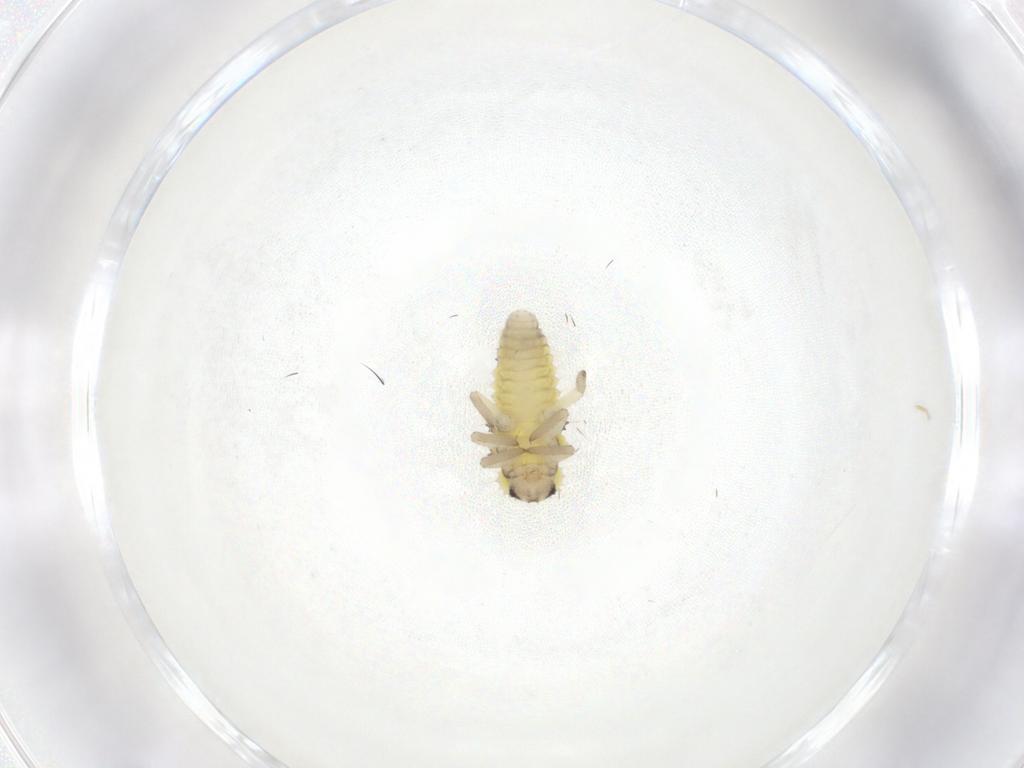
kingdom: Animalia
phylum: Arthropoda
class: Insecta
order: Coleoptera
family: Coccinellidae
